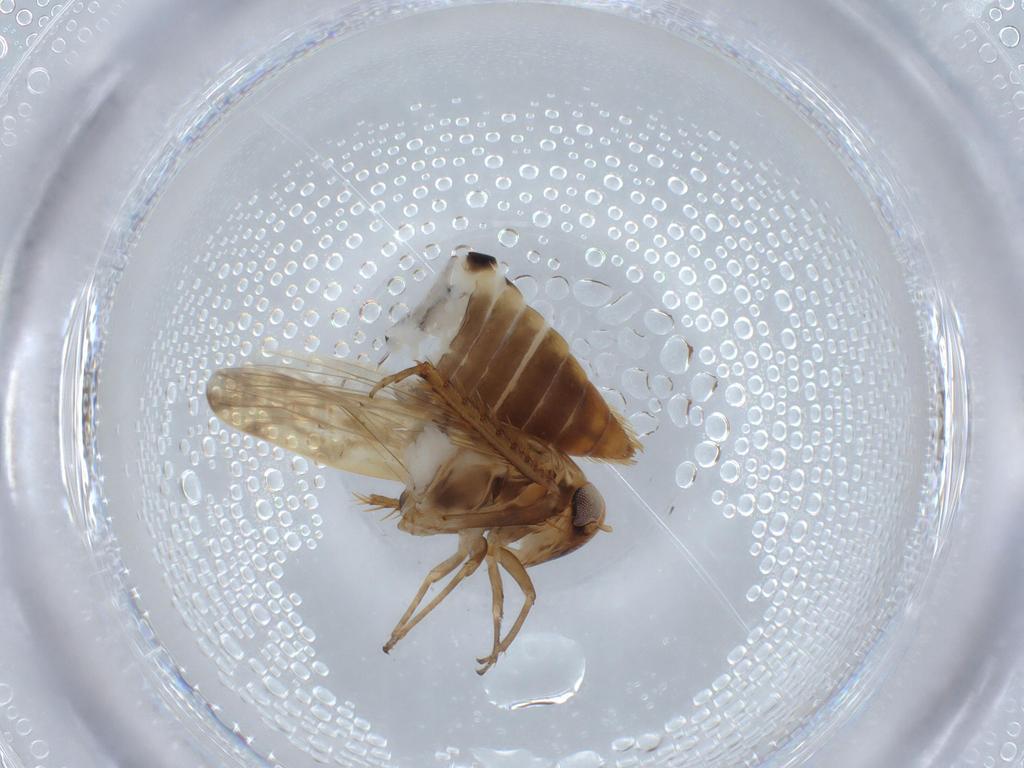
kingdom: Animalia
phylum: Arthropoda
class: Insecta
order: Hemiptera
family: Cicadellidae
